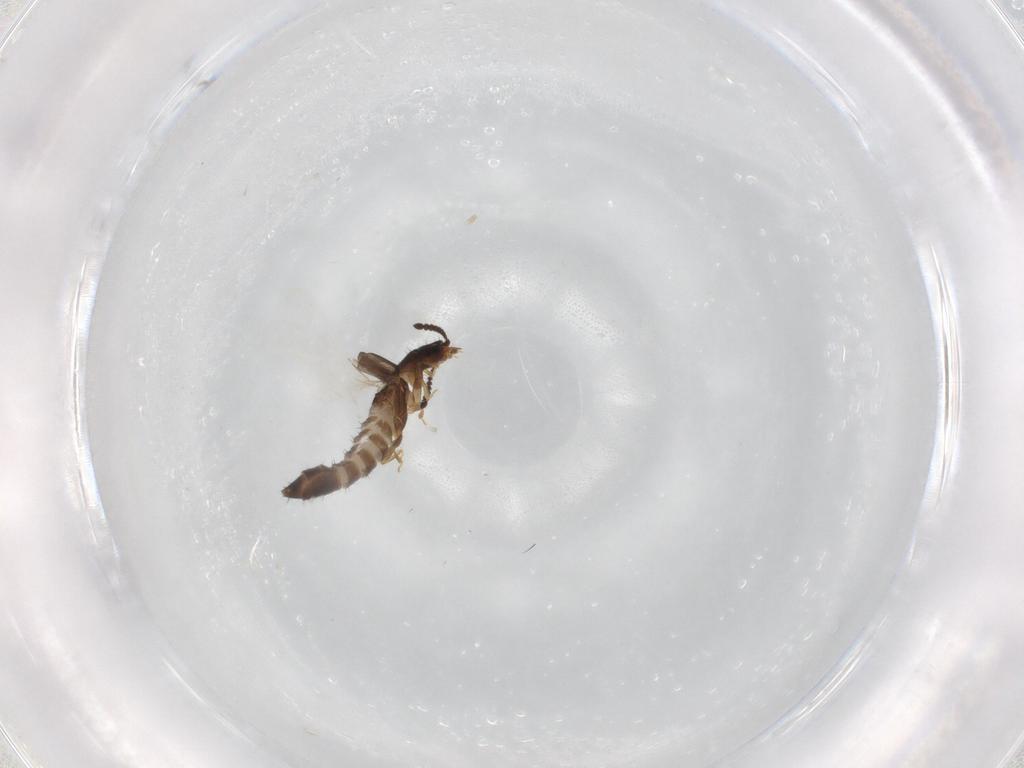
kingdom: Animalia
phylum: Arthropoda
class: Insecta
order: Coleoptera
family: Staphylinidae
